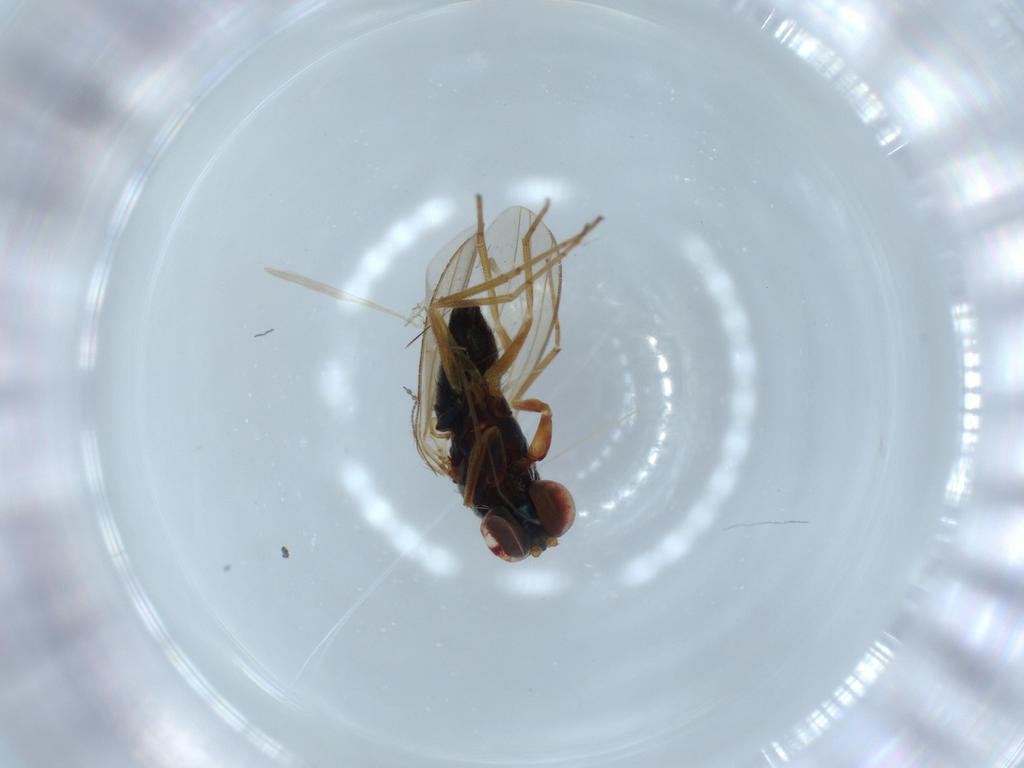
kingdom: Animalia
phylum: Arthropoda
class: Insecta
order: Diptera
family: Dolichopodidae
